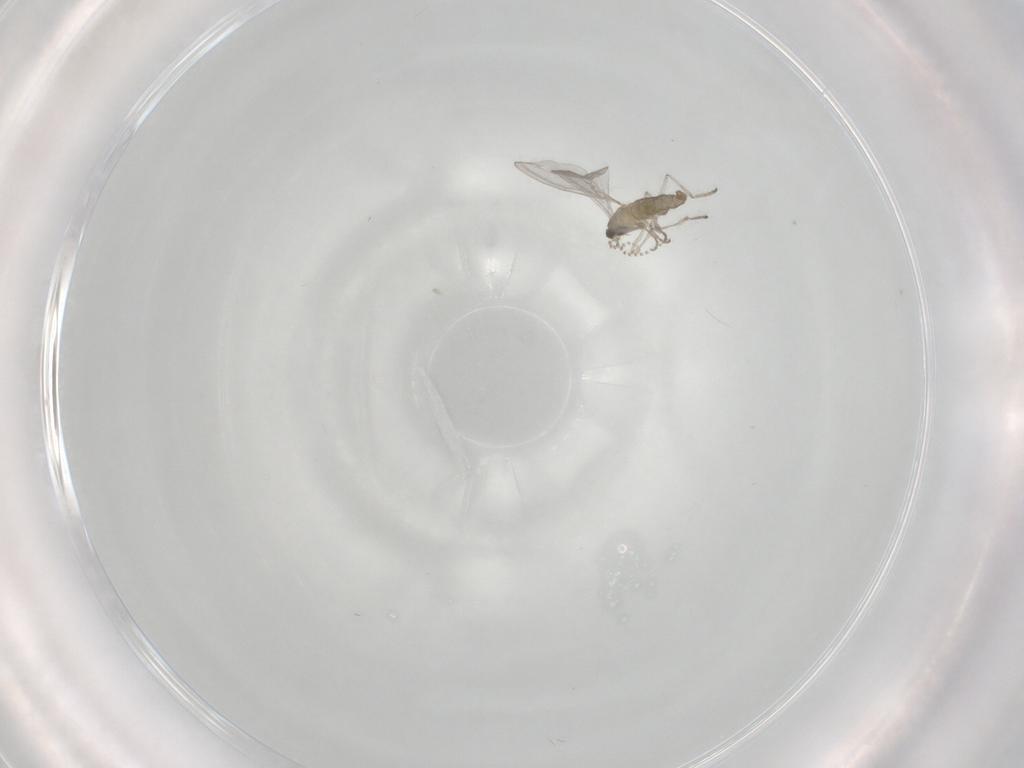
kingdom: Animalia
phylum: Arthropoda
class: Insecta
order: Diptera
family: Cecidomyiidae
